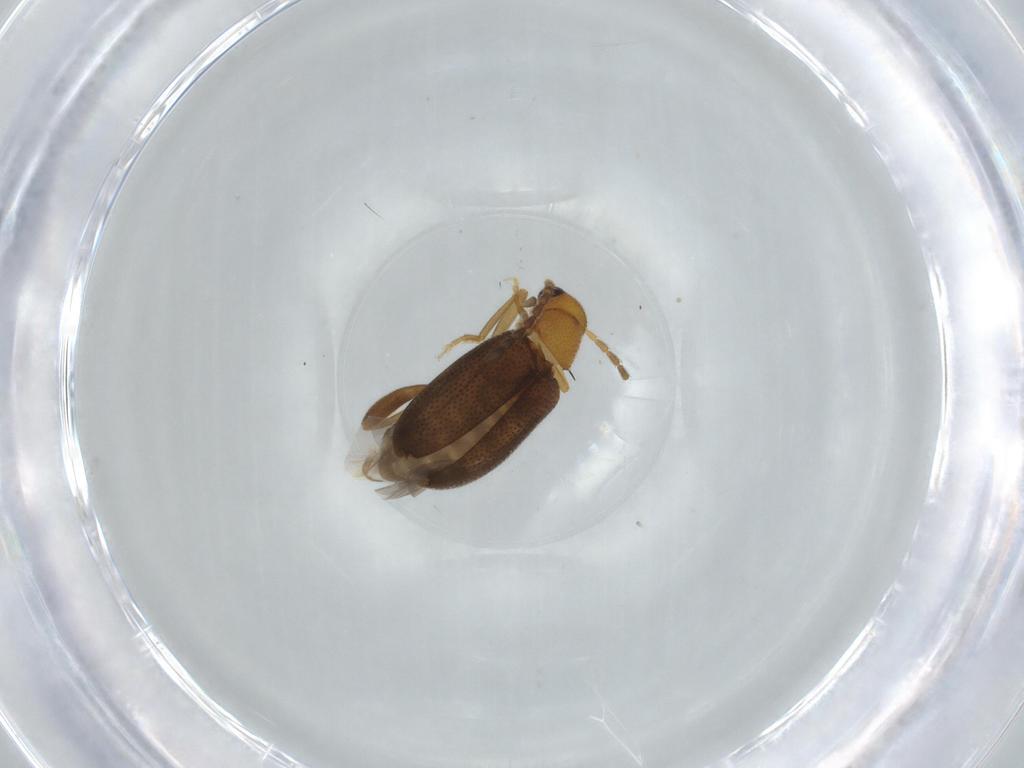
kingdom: Animalia
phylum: Arthropoda
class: Insecta
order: Coleoptera
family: Aderidae
